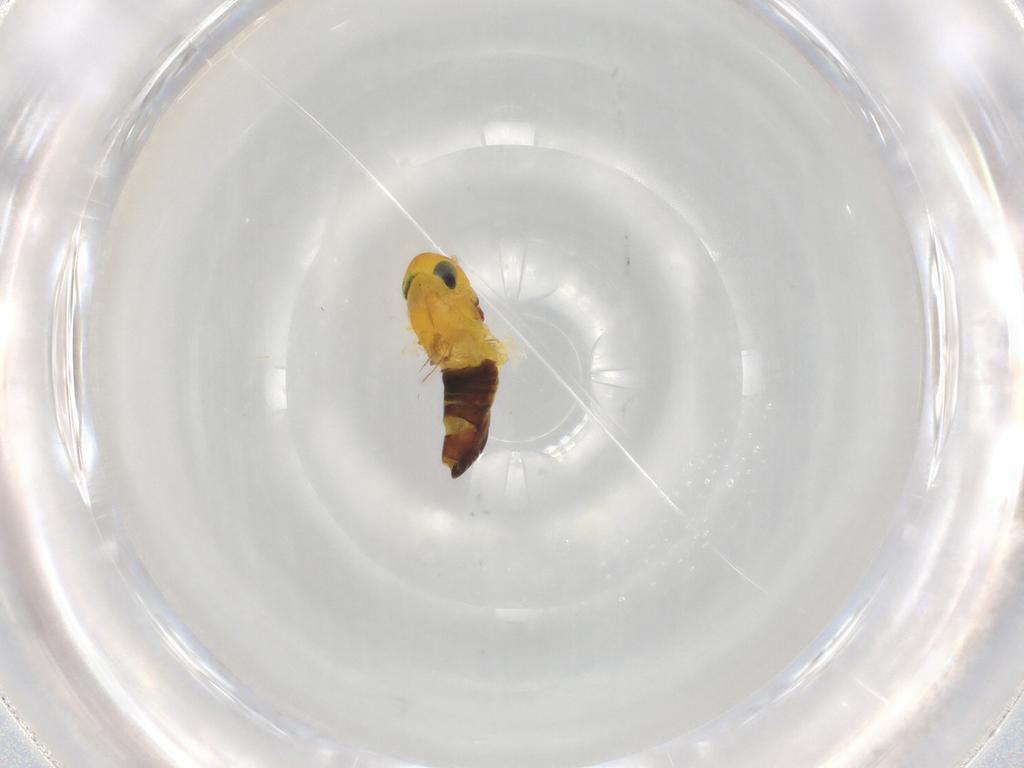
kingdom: Animalia
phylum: Arthropoda
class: Insecta
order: Hemiptera
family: Cicadellidae
